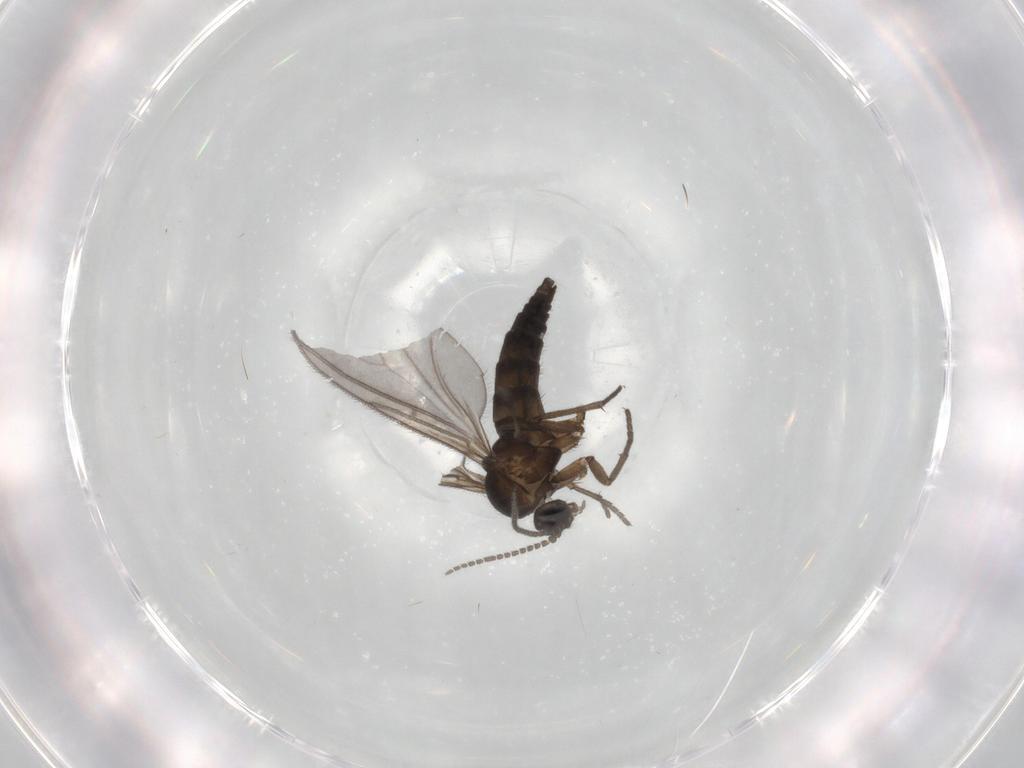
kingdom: Animalia
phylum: Arthropoda
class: Insecta
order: Diptera
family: Sciaridae
